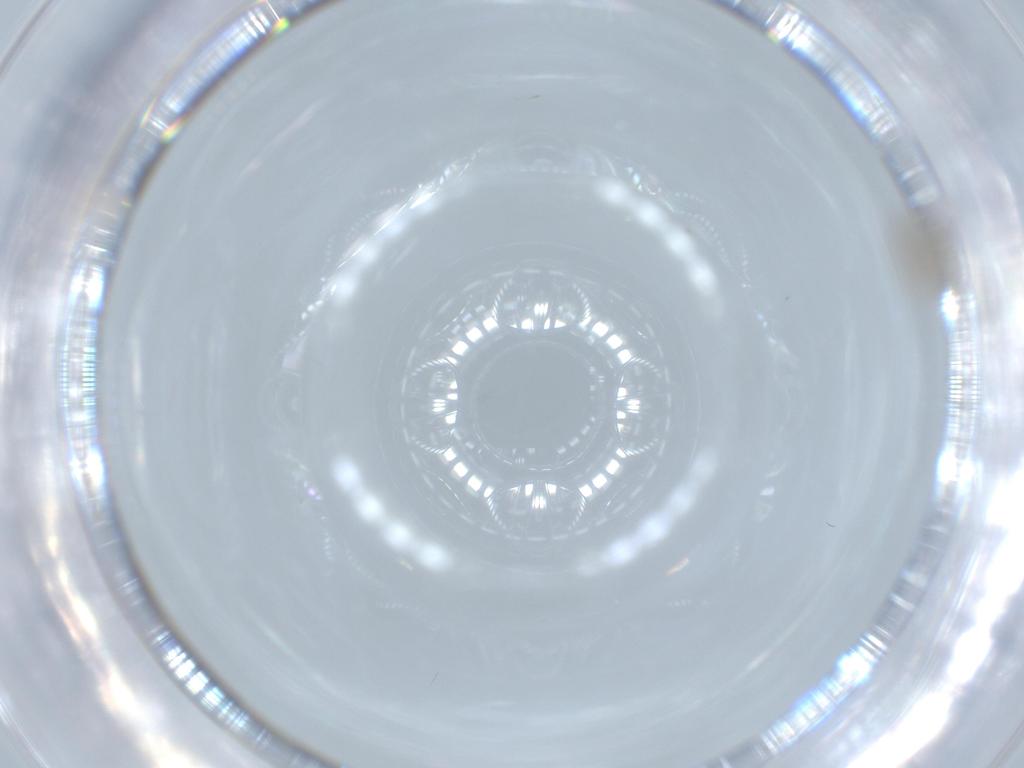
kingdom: Animalia
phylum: Arthropoda
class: Insecta
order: Diptera
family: Cecidomyiidae
